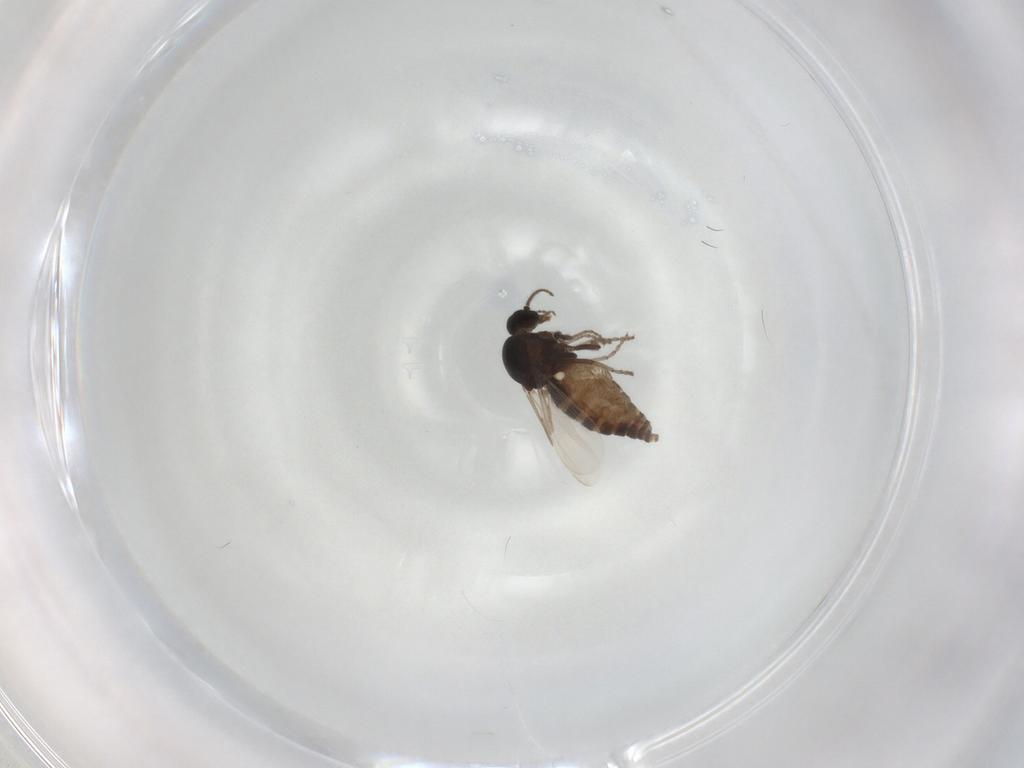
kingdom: Animalia
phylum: Arthropoda
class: Insecta
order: Diptera
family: Ceratopogonidae
